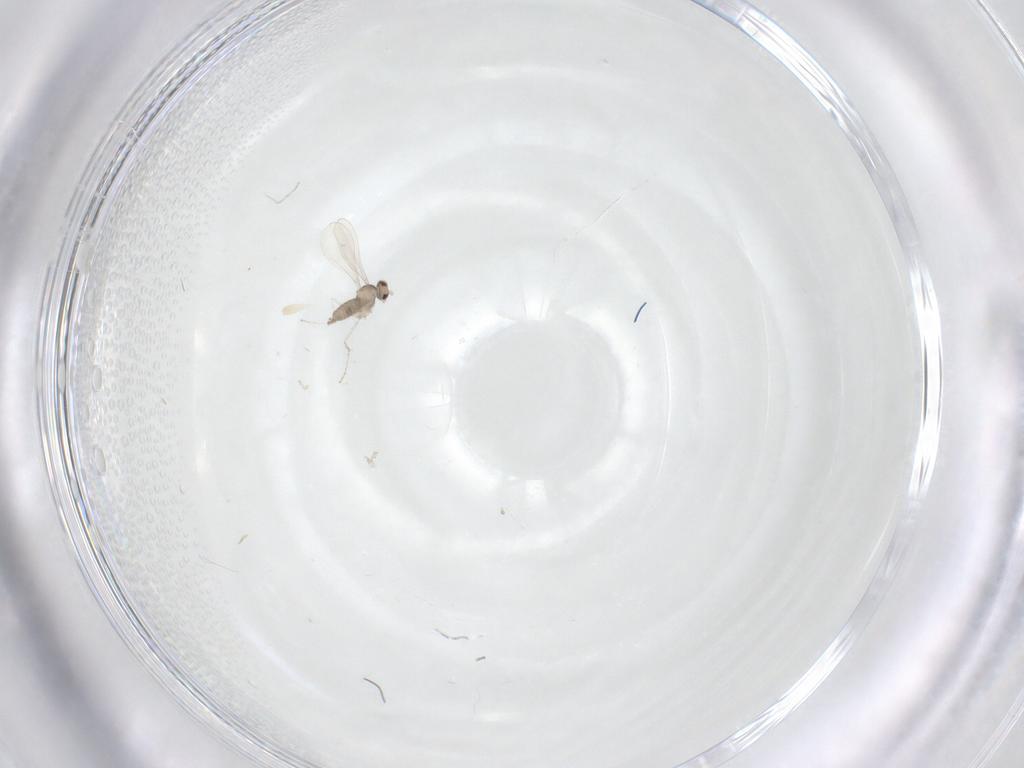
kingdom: Animalia
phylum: Arthropoda
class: Insecta
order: Diptera
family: Cecidomyiidae
